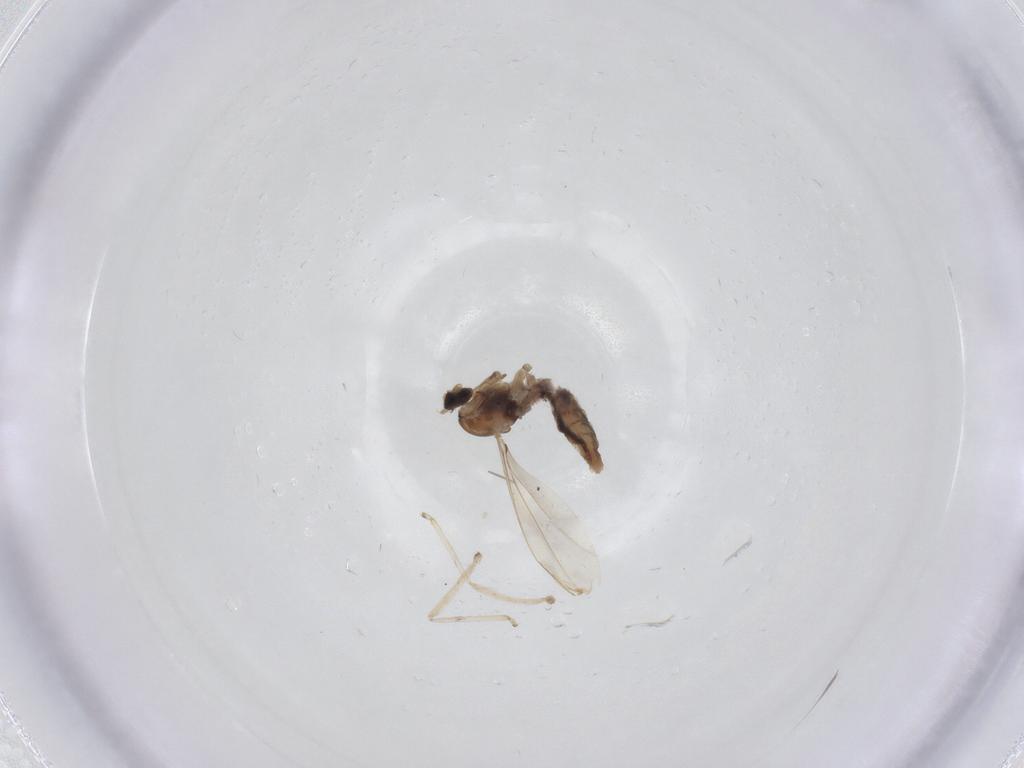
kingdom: Animalia
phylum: Arthropoda
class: Insecta
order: Diptera
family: Cecidomyiidae
